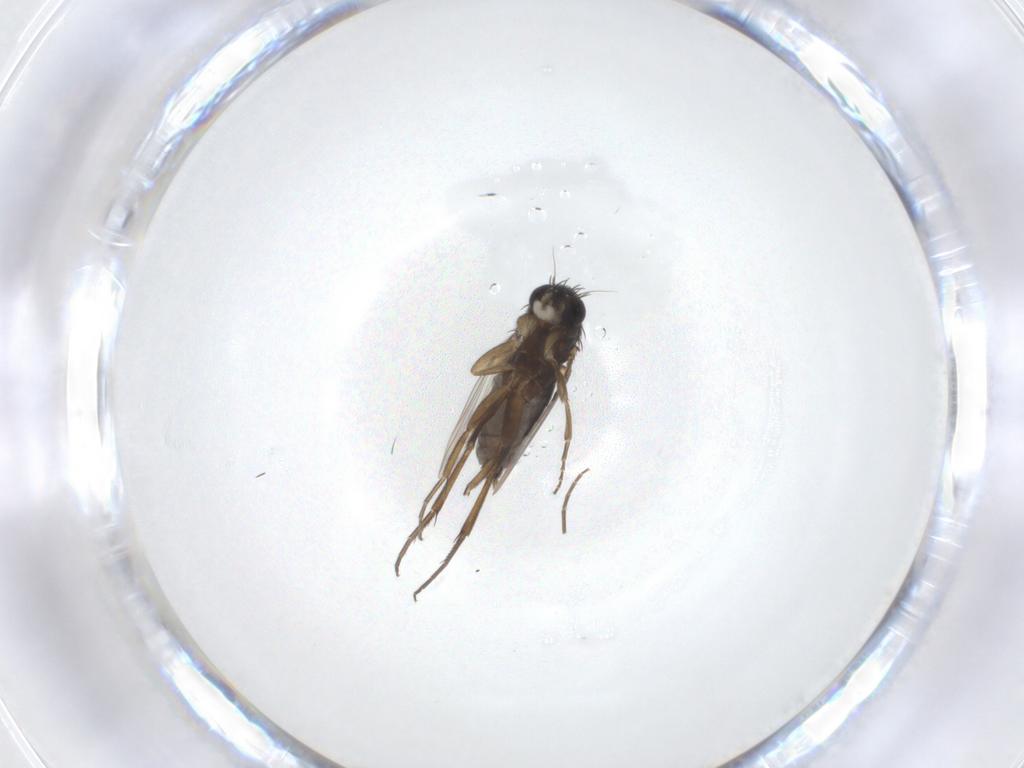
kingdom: Animalia
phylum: Arthropoda
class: Insecta
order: Diptera
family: Phoridae
